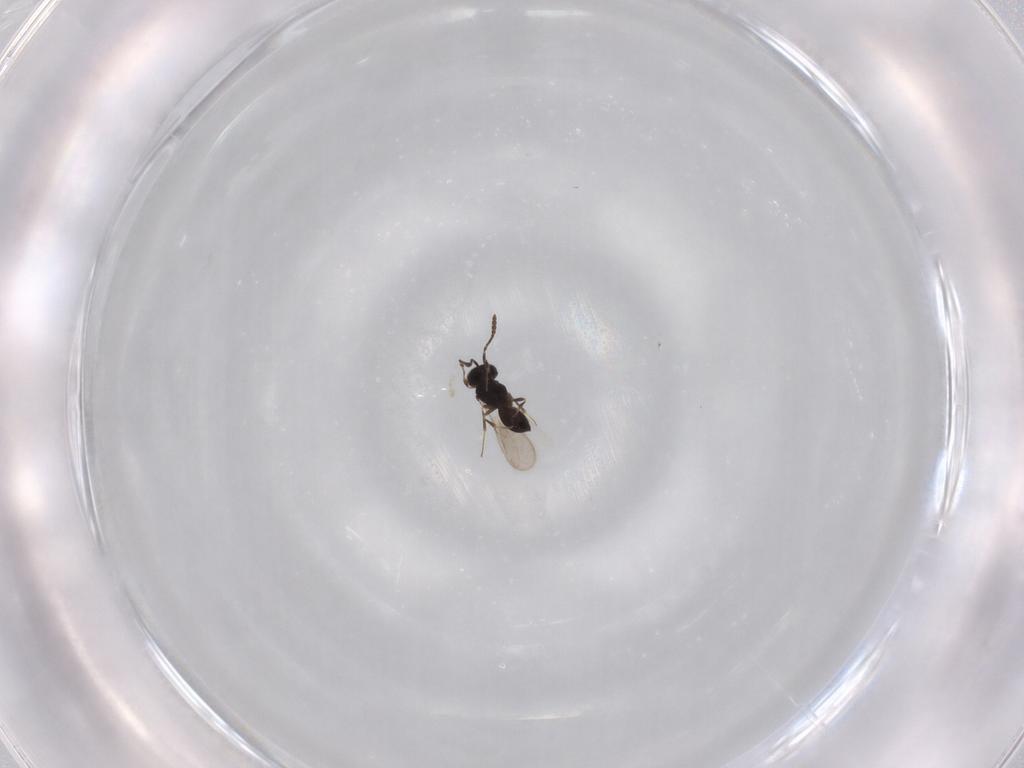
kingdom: Animalia
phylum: Arthropoda
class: Insecta
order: Hymenoptera
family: Scelionidae
